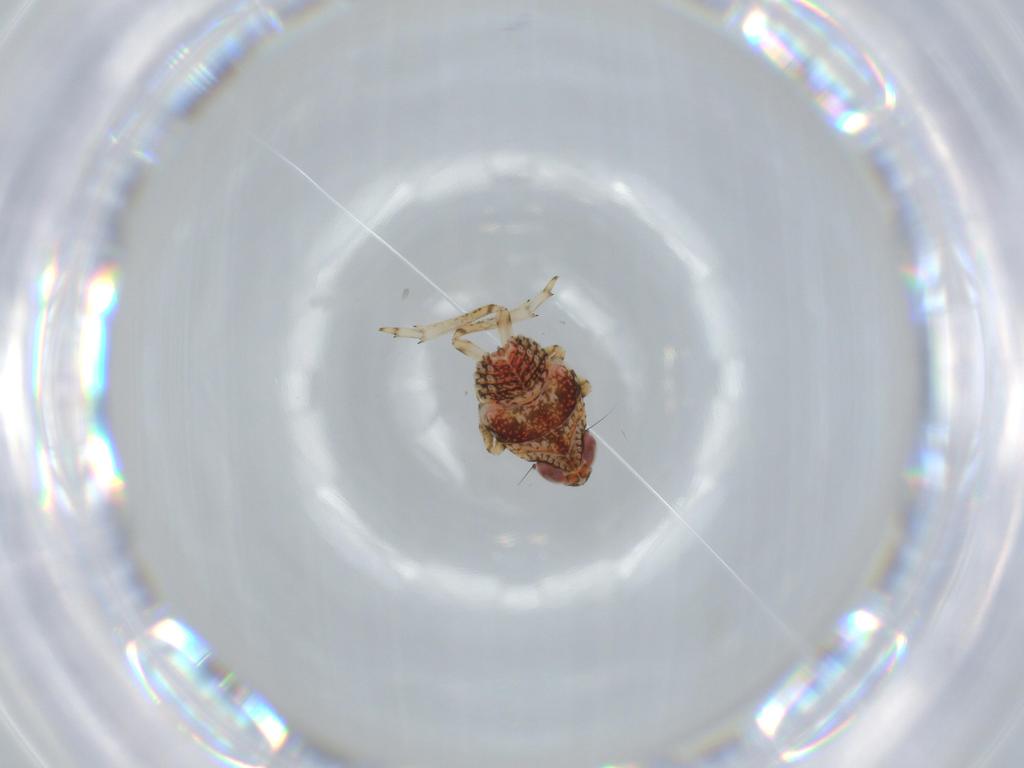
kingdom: Animalia
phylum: Arthropoda
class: Insecta
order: Hemiptera
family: Issidae
